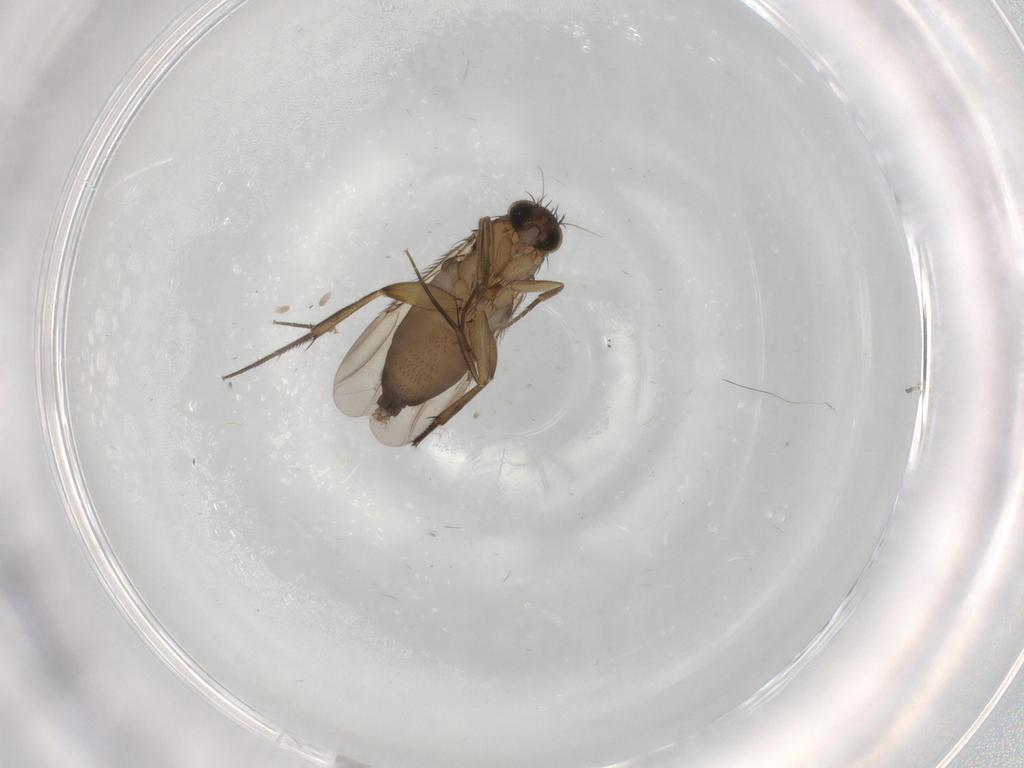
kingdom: Animalia
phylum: Arthropoda
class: Insecta
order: Diptera
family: Phoridae
